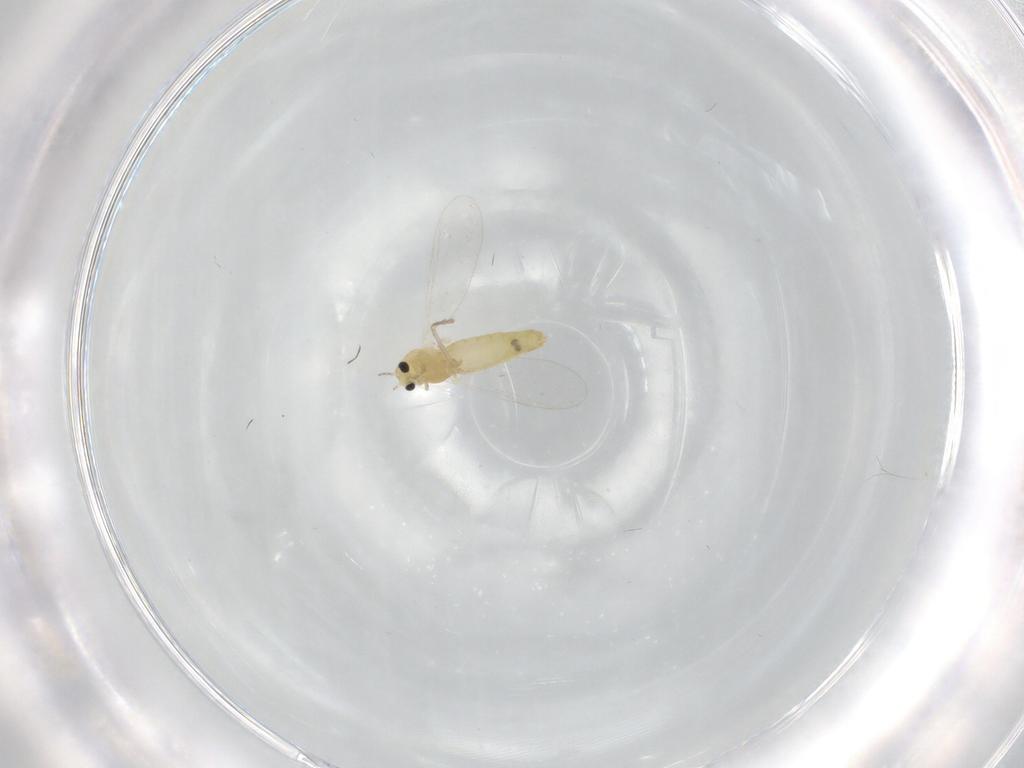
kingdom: Animalia
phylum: Arthropoda
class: Insecta
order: Diptera
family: Chironomidae
